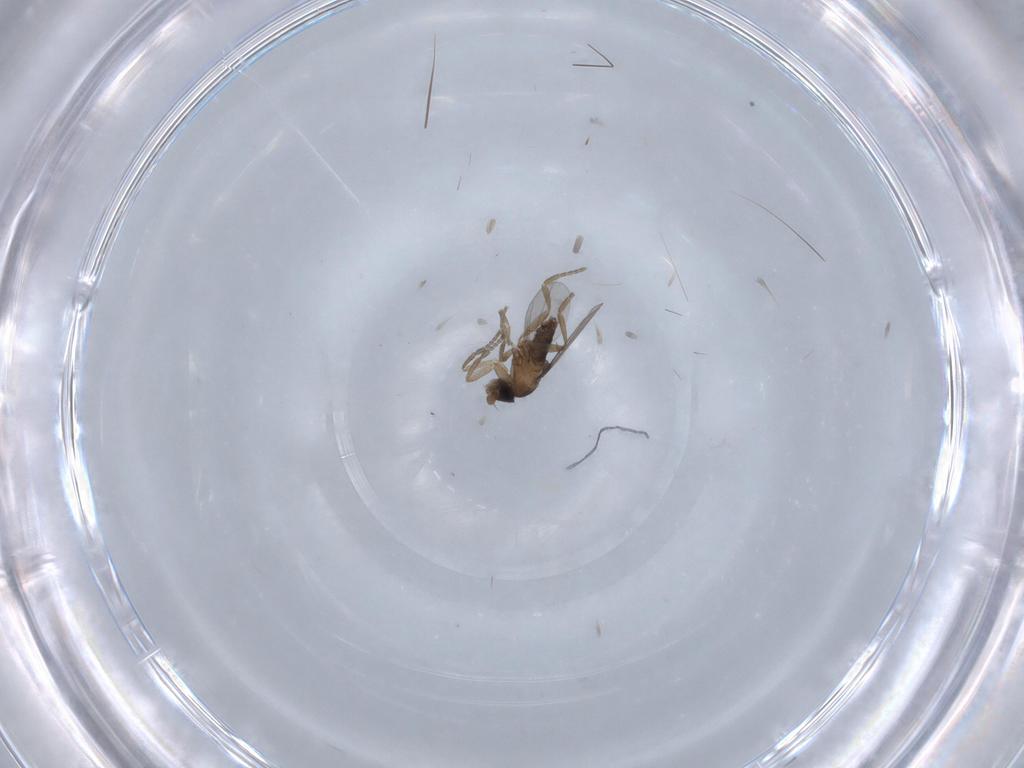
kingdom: Animalia
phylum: Arthropoda
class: Insecta
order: Diptera
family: Phoridae
